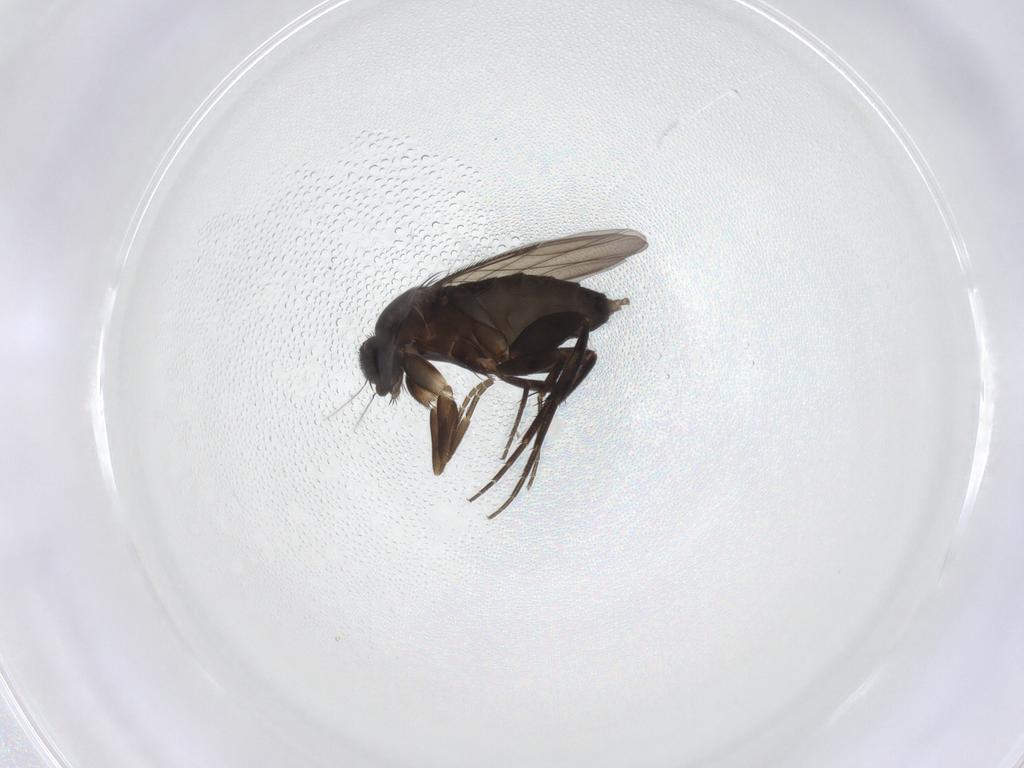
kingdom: Animalia
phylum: Arthropoda
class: Insecta
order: Diptera
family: Phoridae
